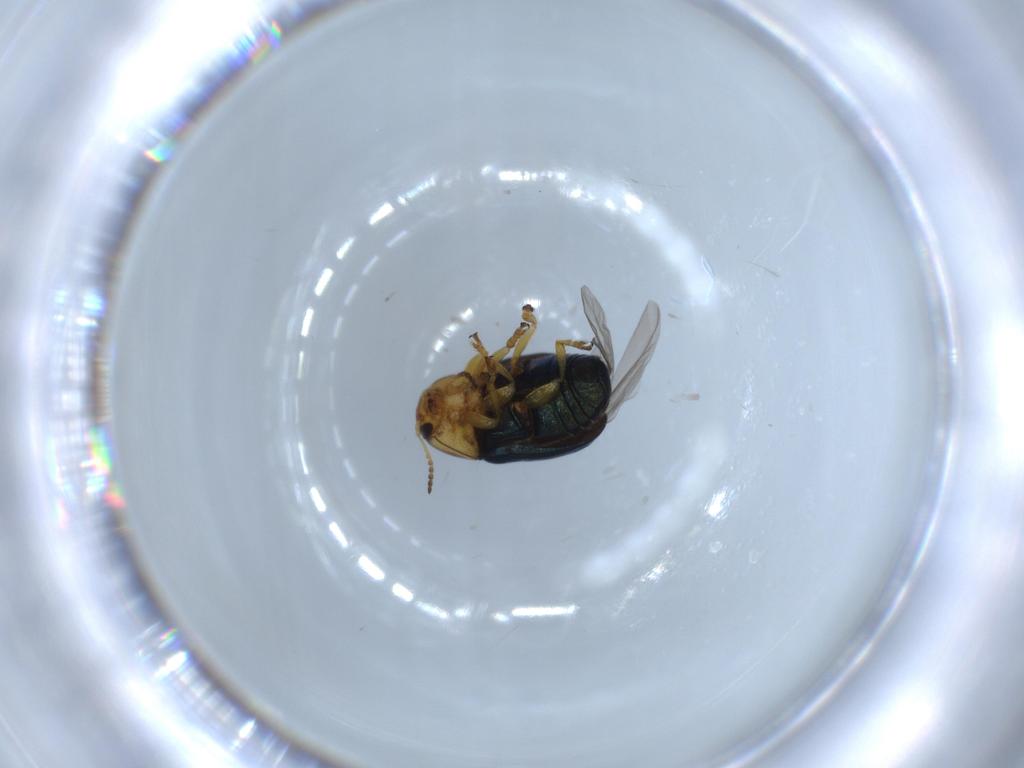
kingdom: Animalia
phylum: Arthropoda
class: Insecta
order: Coleoptera
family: Chrysomelidae
